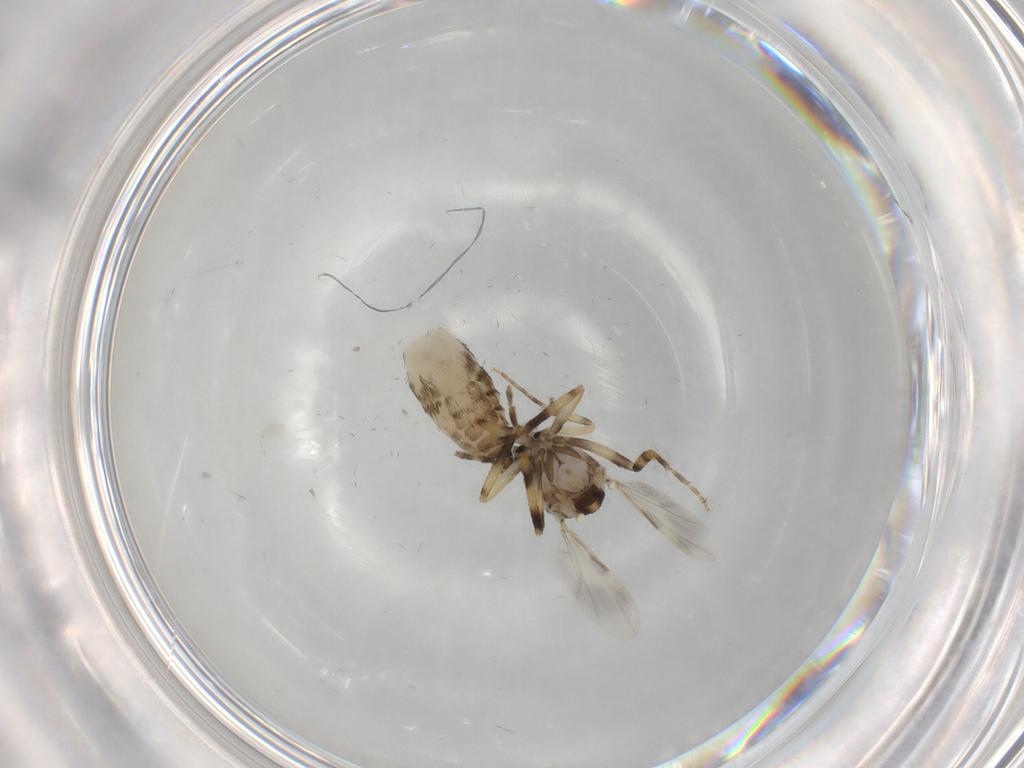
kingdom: Animalia
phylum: Arthropoda
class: Insecta
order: Diptera
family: Ceratopogonidae
